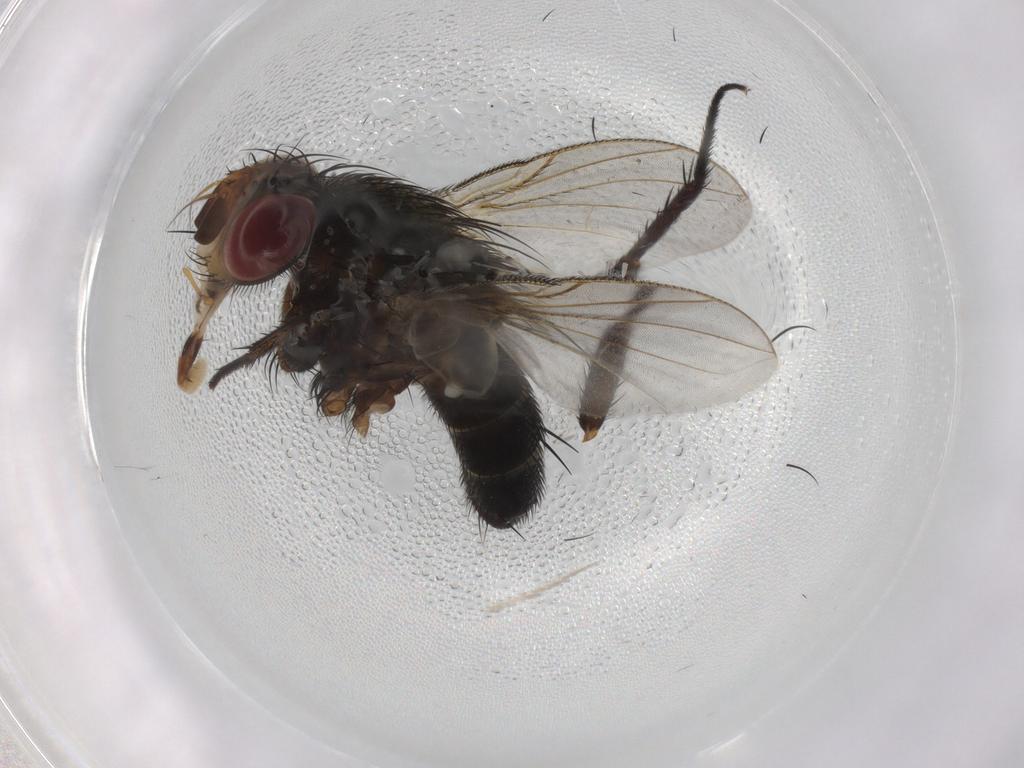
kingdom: Animalia
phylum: Arthropoda
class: Insecta
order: Diptera
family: Tachinidae
